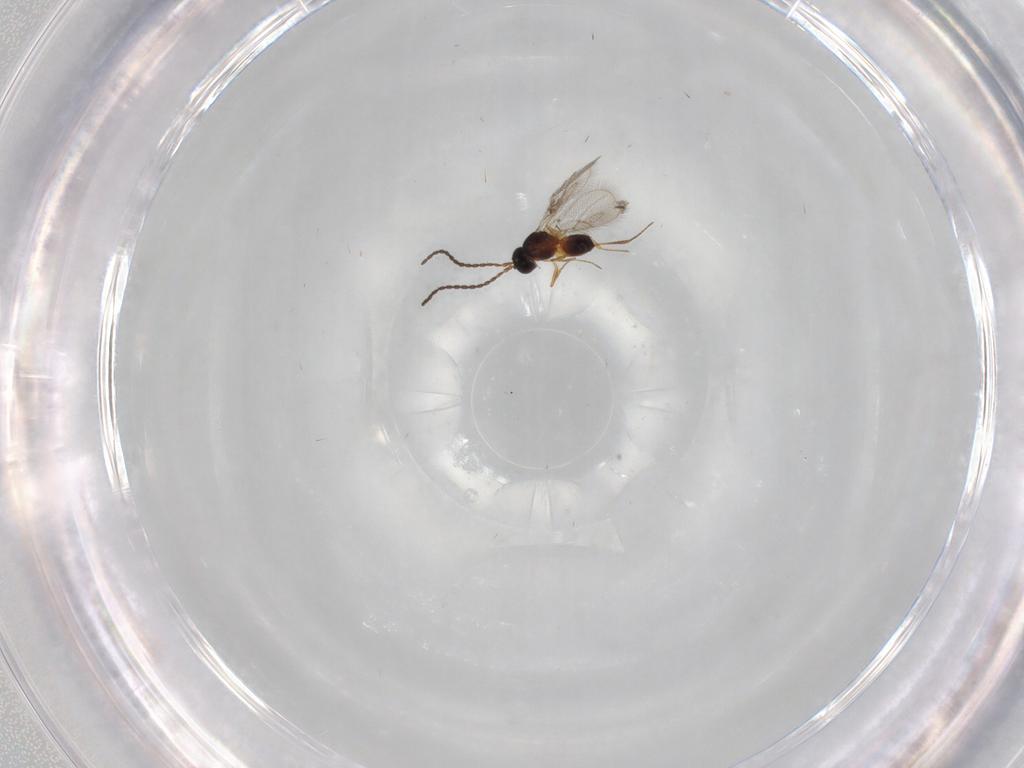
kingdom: Animalia
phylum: Arthropoda
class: Insecta
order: Hymenoptera
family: Figitidae
